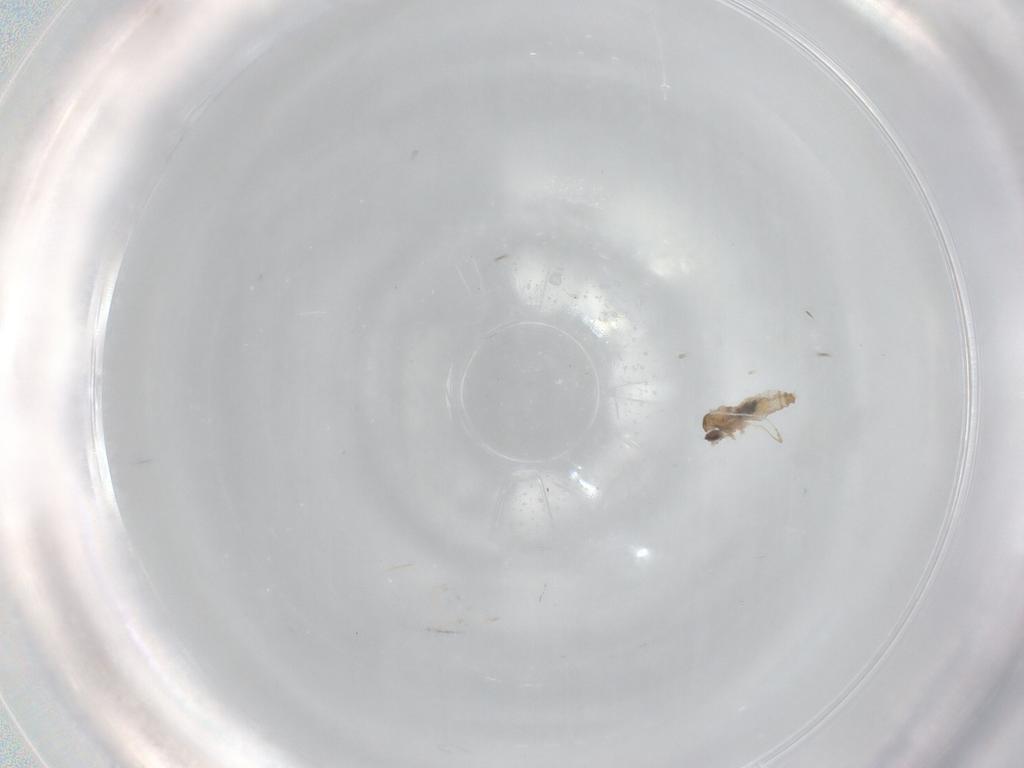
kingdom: Animalia
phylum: Arthropoda
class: Insecta
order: Diptera
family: Cecidomyiidae
